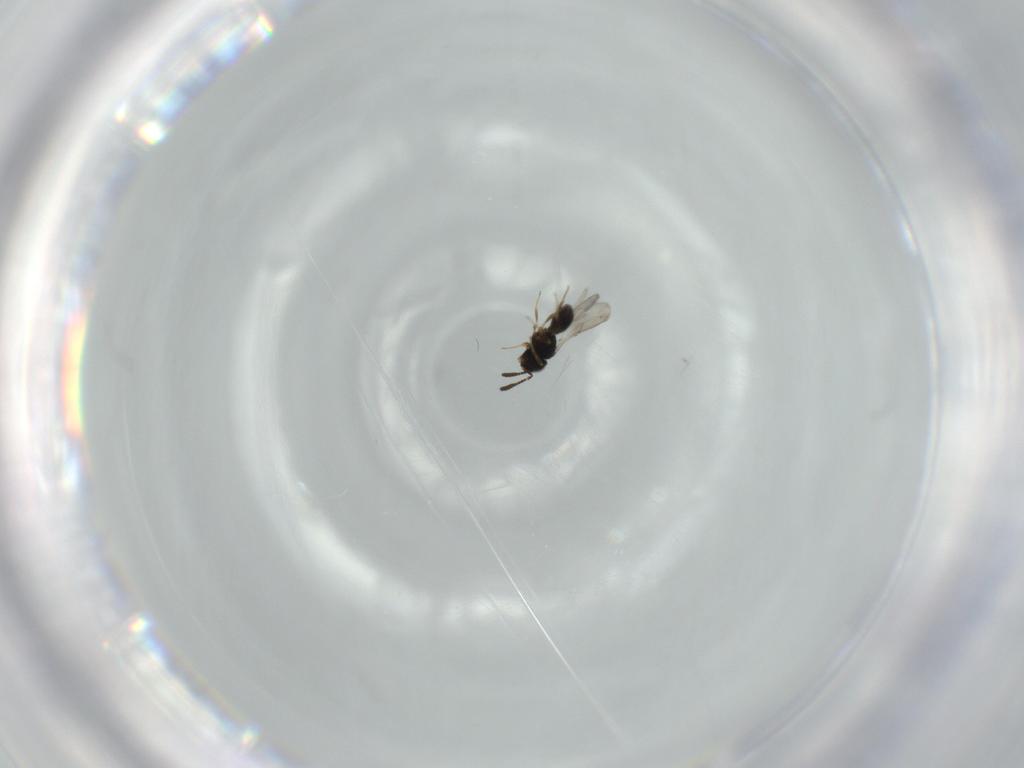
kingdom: Animalia
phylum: Arthropoda
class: Insecta
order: Hymenoptera
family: Scelionidae
